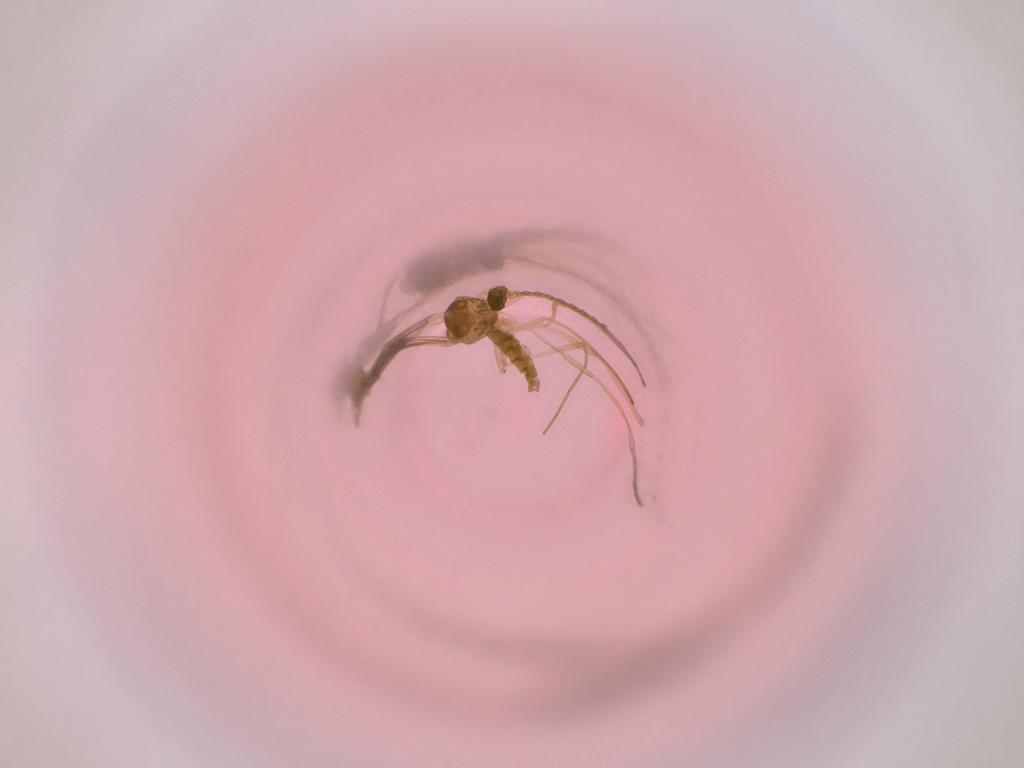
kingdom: Animalia
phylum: Arthropoda
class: Insecta
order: Diptera
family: Cecidomyiidae
